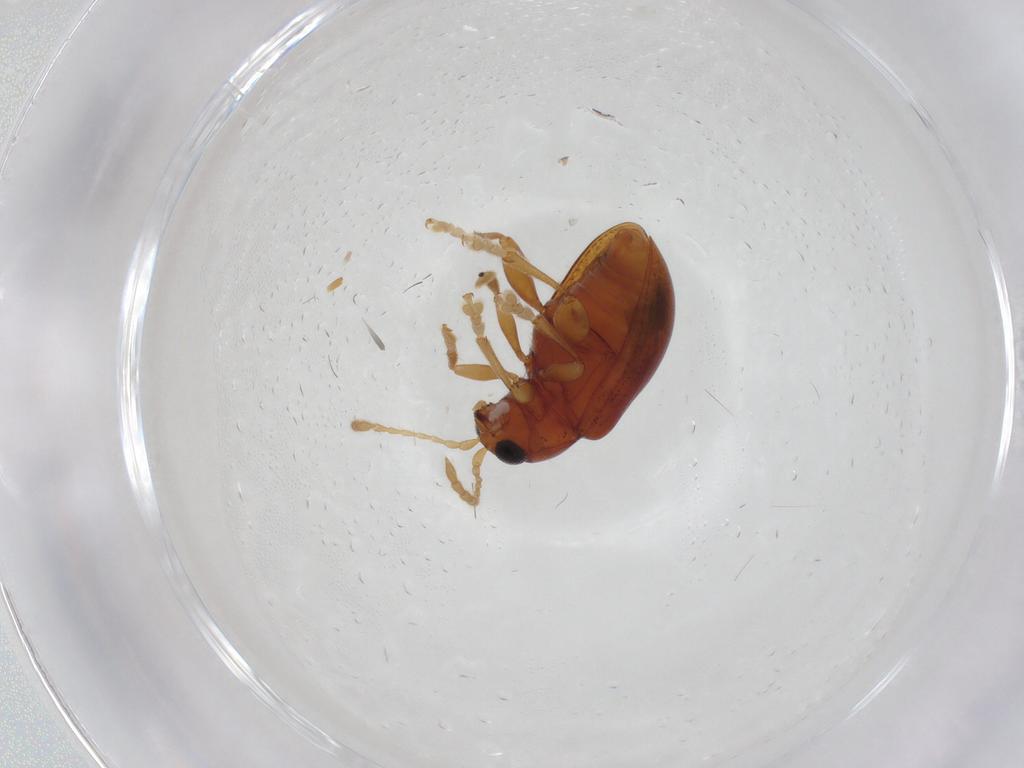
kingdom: Animalia
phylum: Arthropoda
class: Insecta
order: Coleoptera
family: Chrysomelidae
